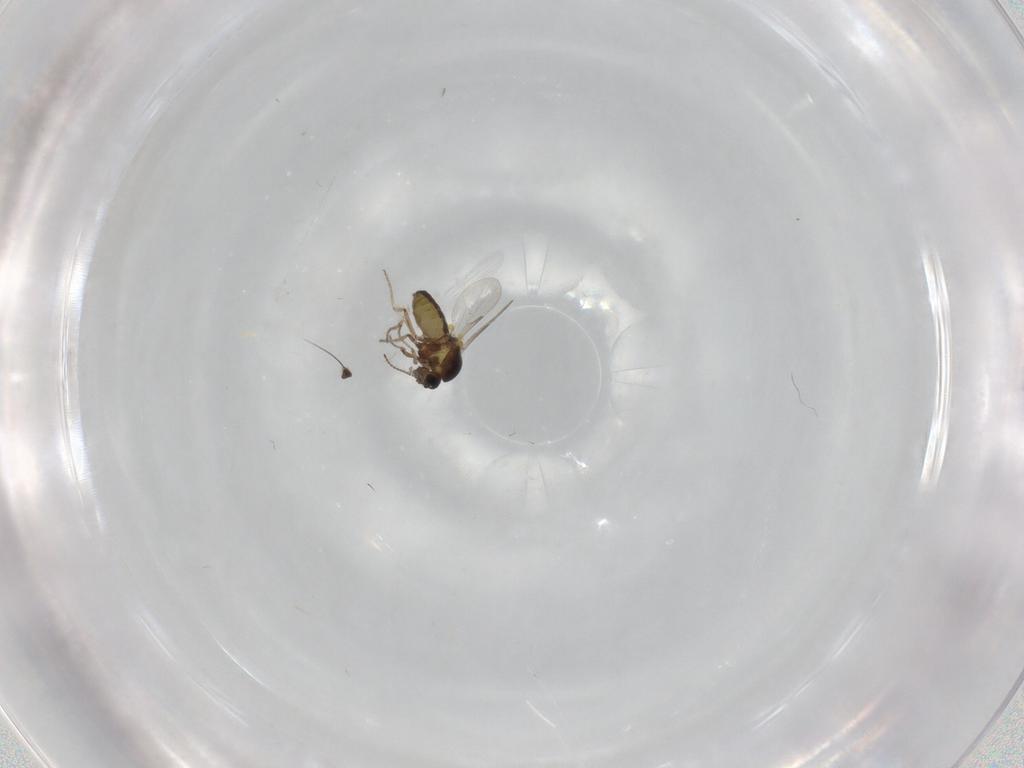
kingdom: Animalia
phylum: Arthropoda
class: Insecta
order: Diptera
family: Ceratopogonidae
